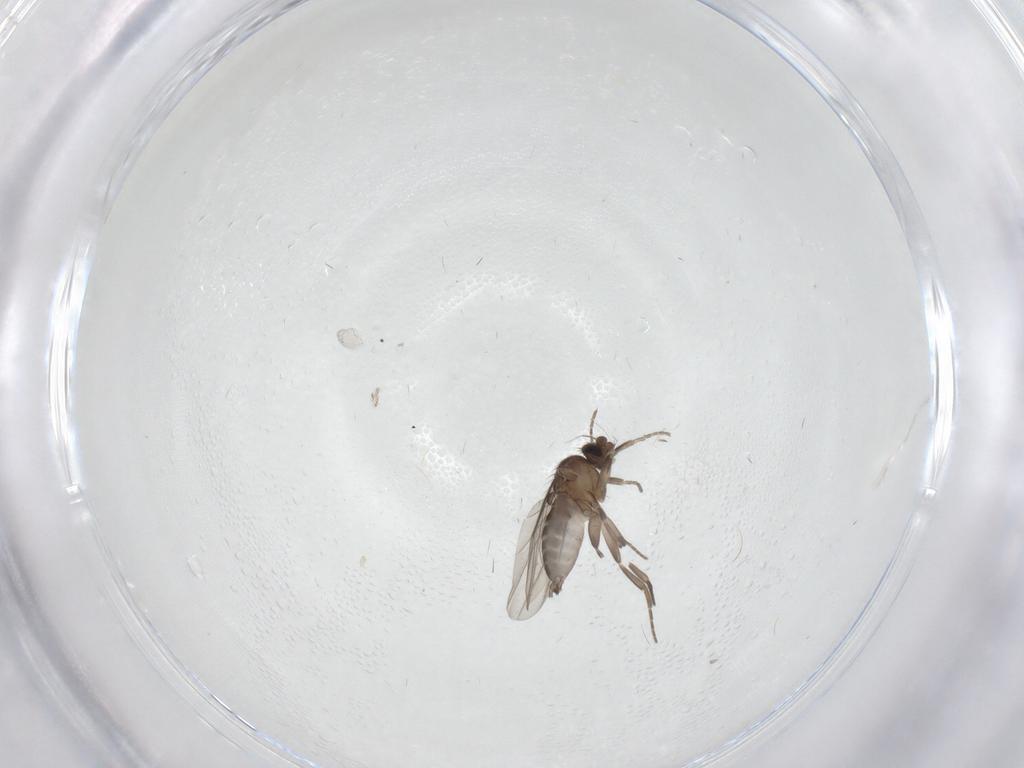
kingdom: Animalia
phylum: Arthropoda
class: Insecta
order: Diptera
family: Phoridae
